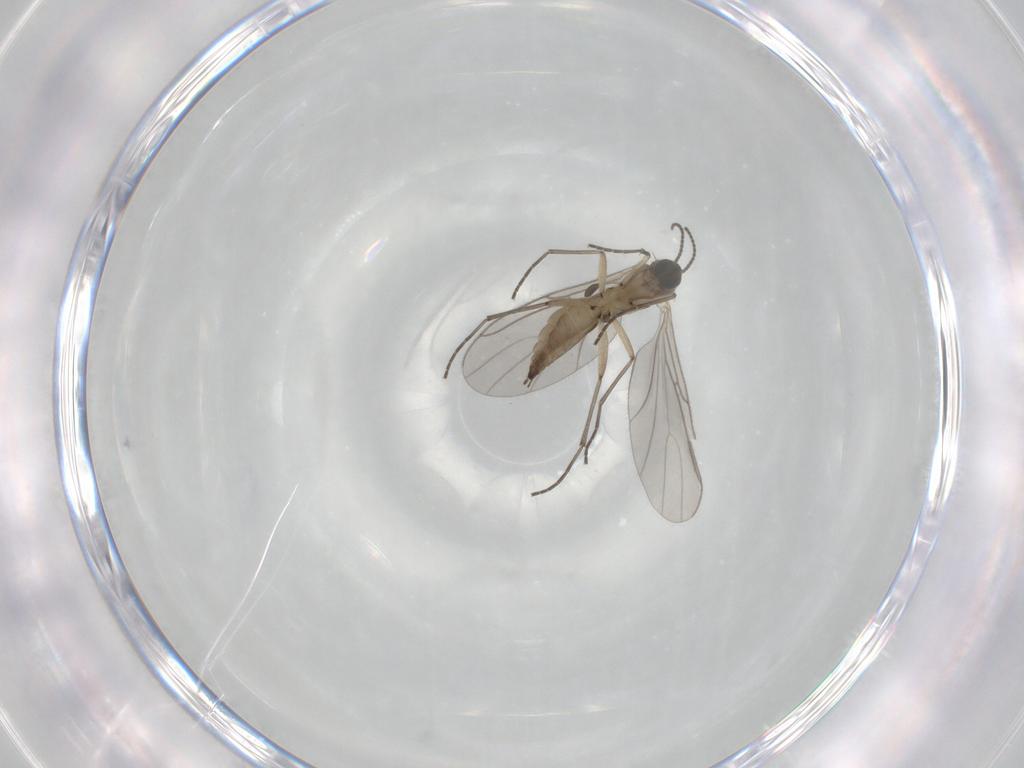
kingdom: Animalia
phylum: Arthropoda
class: Insecta
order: Diptera
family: Sciaridae
